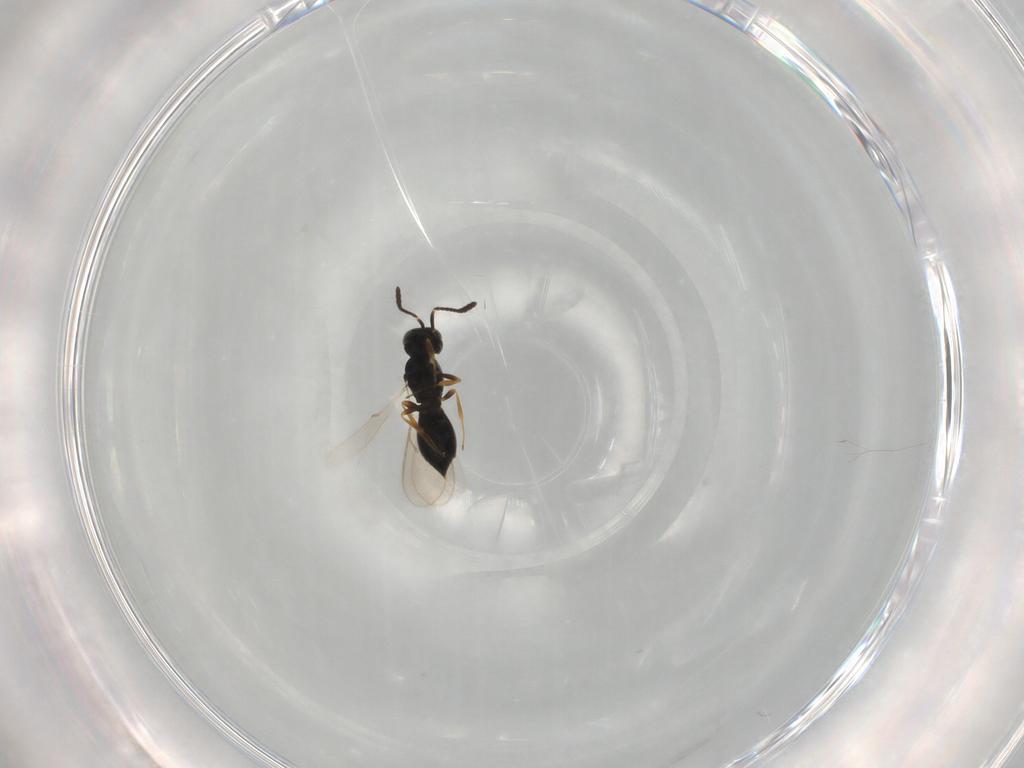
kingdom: Animalia
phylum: Arthropoda
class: Insecta
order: Hymenoptera
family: Scelionidae
